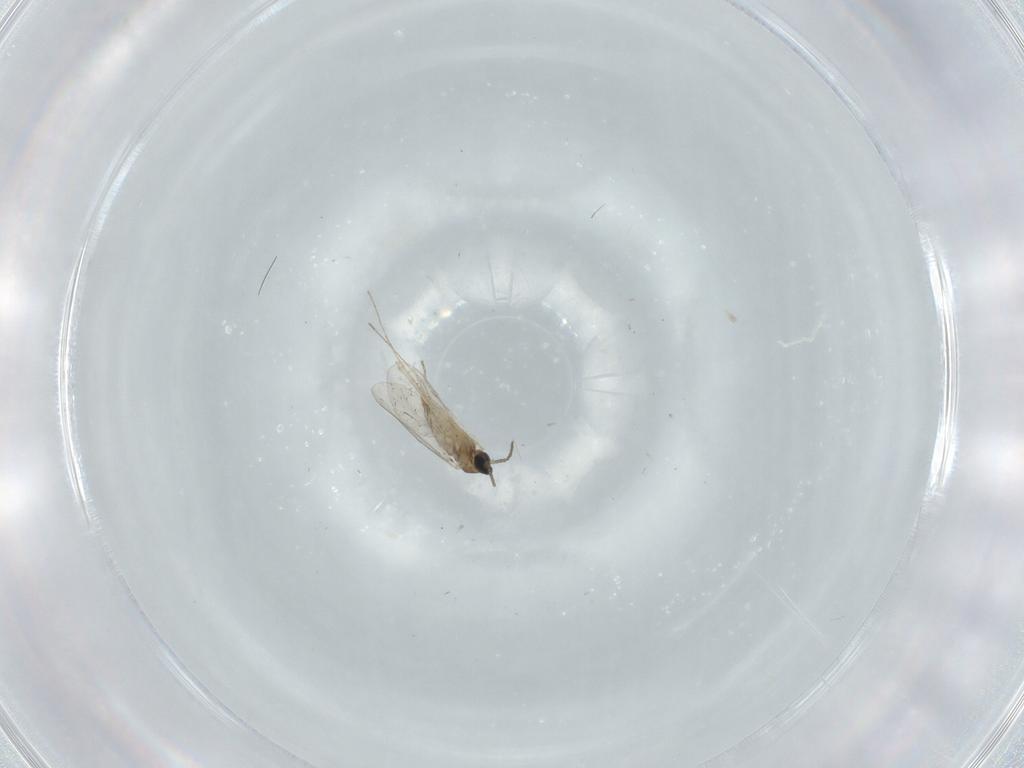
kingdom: Animalia
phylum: Arthropoda
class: Insecta
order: Diptera
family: Cecidomyiidae
